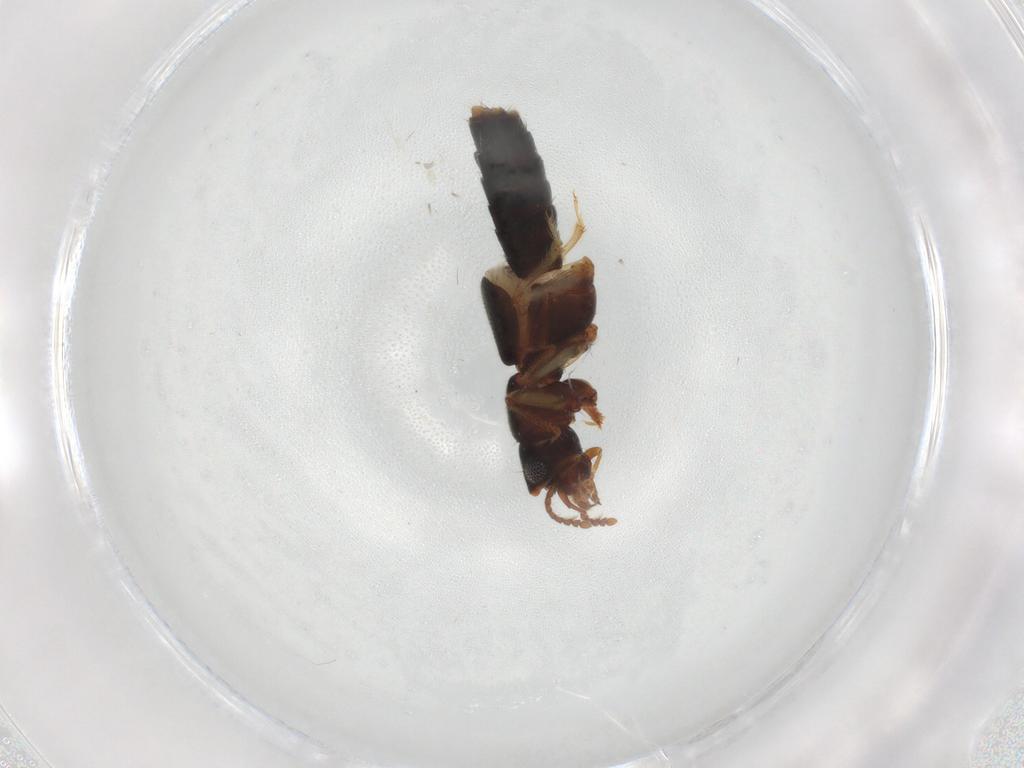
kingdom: Animalia
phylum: Arthropoda
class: Insecta
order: Coleoptera
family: Staphylinidae
